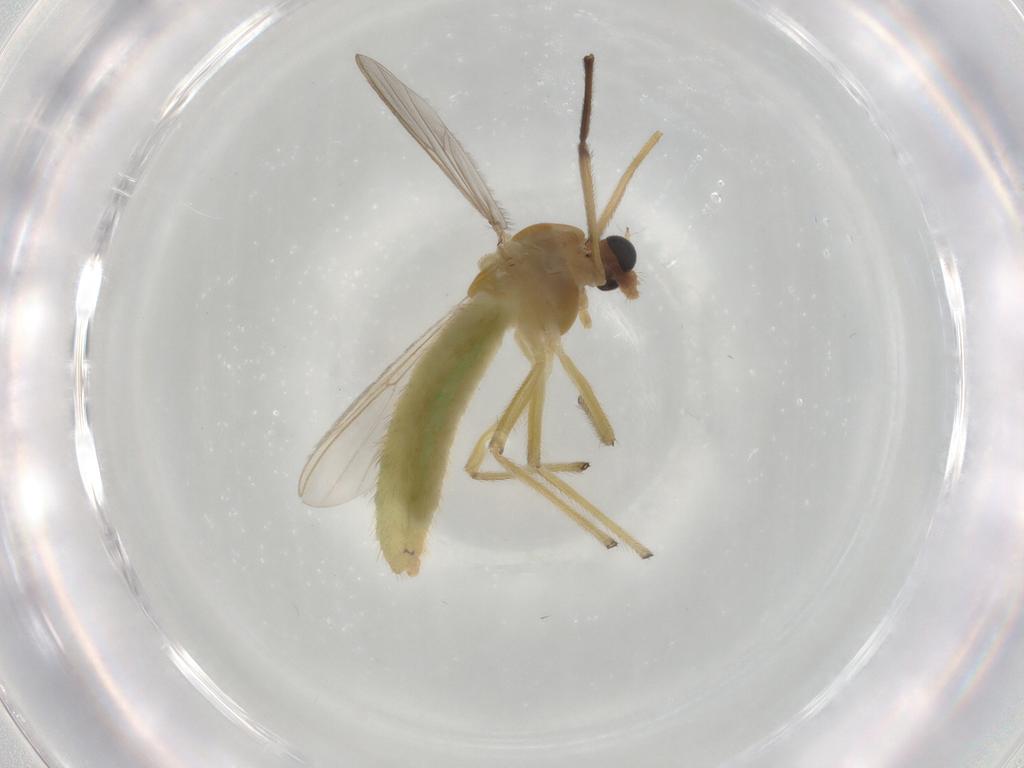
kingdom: Animalia
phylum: Arthropoda
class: Insecta
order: Diptera
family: Chironomidae
